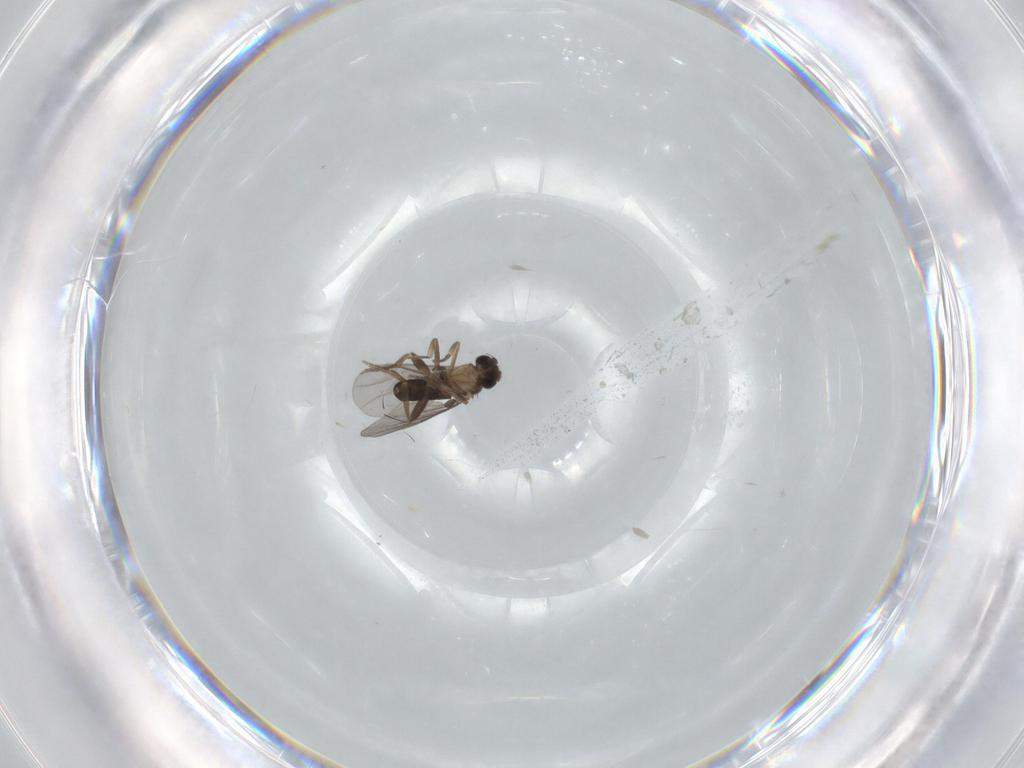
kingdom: Animalia
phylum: Arthropoda
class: Insecta
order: Diptera
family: Phoridae
